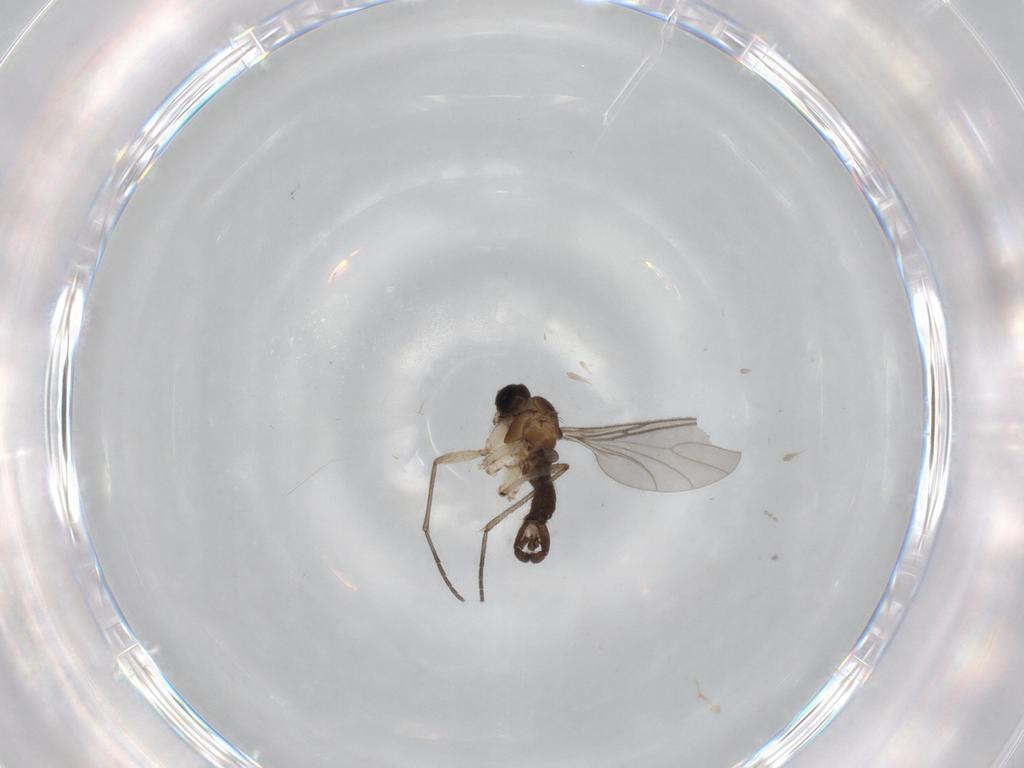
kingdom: Animalia
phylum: Arthropoda
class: Insecta
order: Diptera
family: Sciaridae
